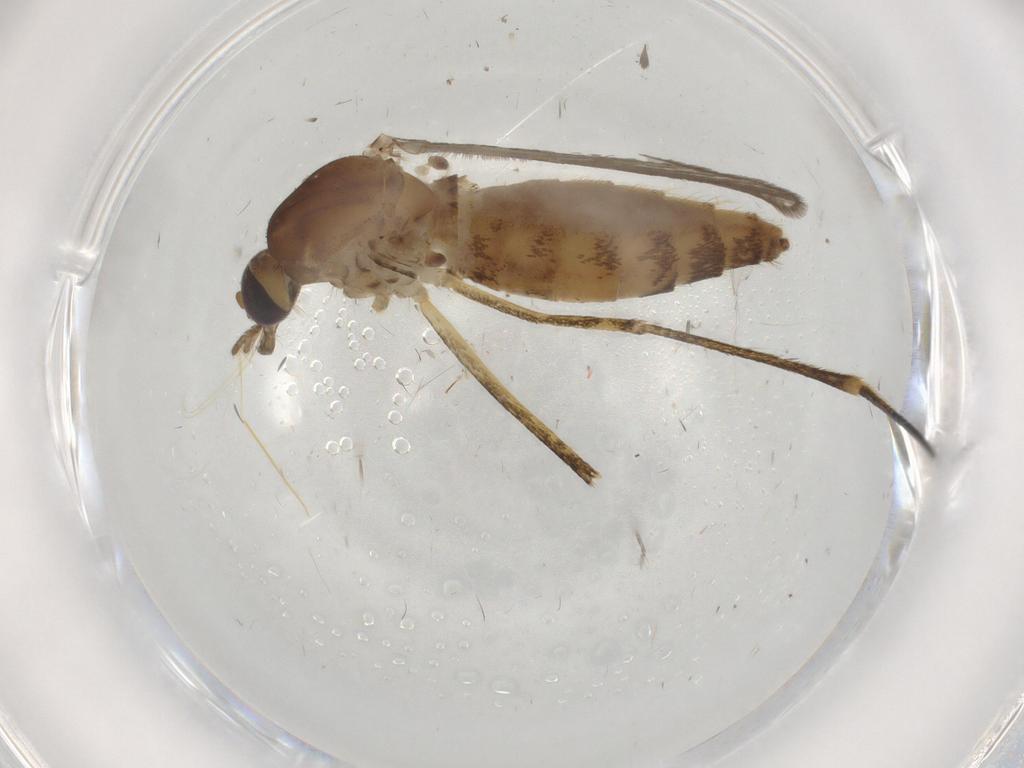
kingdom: Animalia
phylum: Arthropoda
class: Insecta
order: Diptera
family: Culicidae
